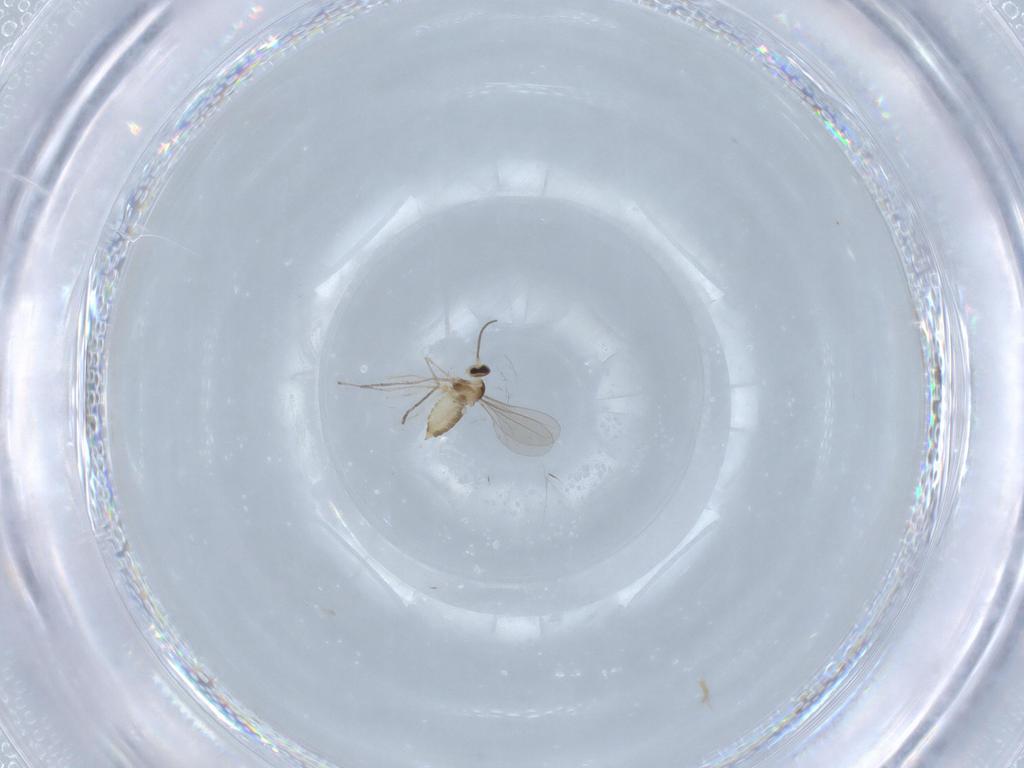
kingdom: Animalia
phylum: Arthropoda
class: Insecta
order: Diptera
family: Cecidomyiidae
